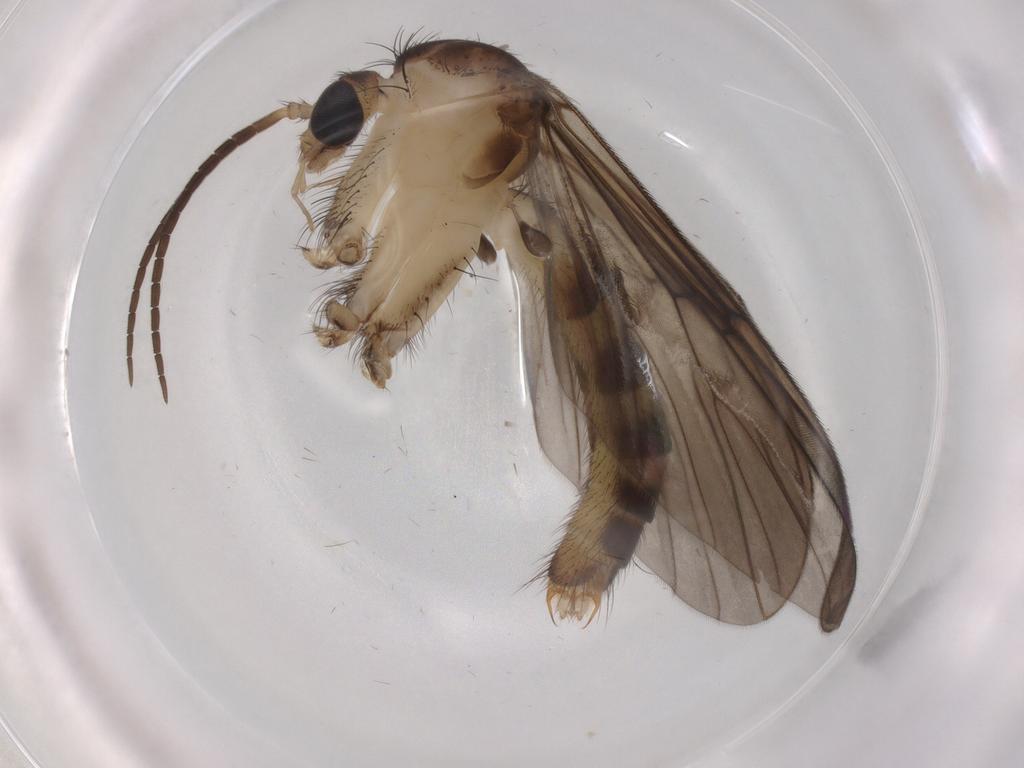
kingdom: Animalia
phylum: Arthropoda
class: Insecta
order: Diptera
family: Mycetophilidae
